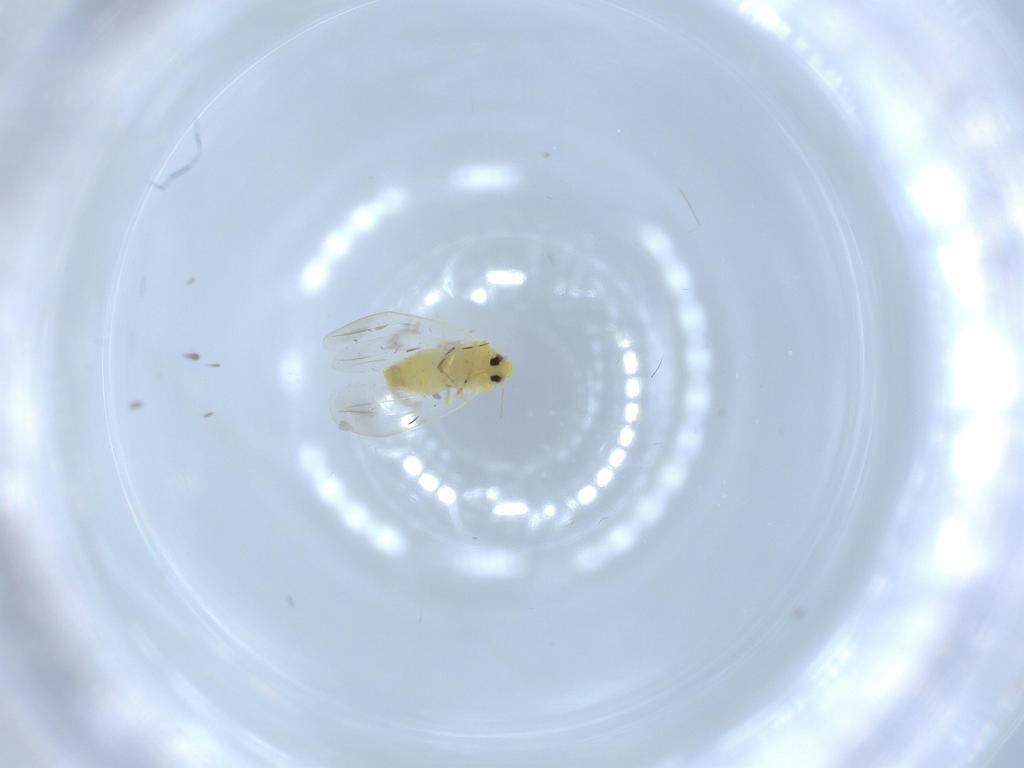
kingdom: Animalia
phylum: Arthropoda
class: Insecta
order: Hemiptera
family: Aleyrodidae
